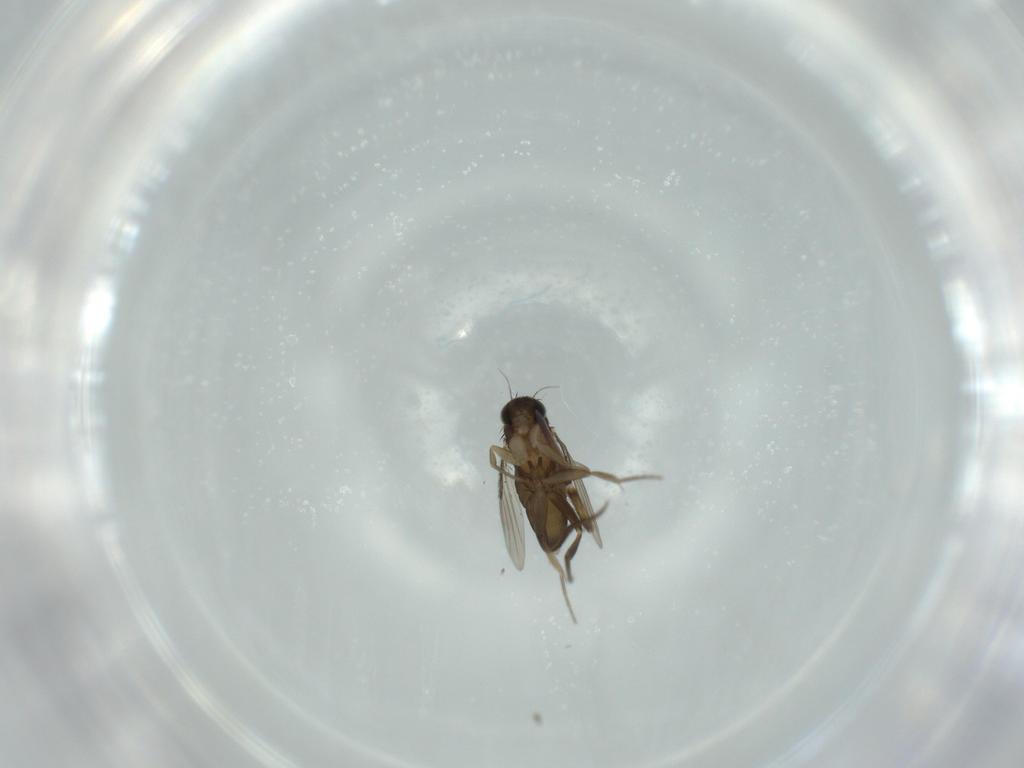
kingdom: Animalia
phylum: Arthropoda
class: Insecta
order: Diptera
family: Phoridae
